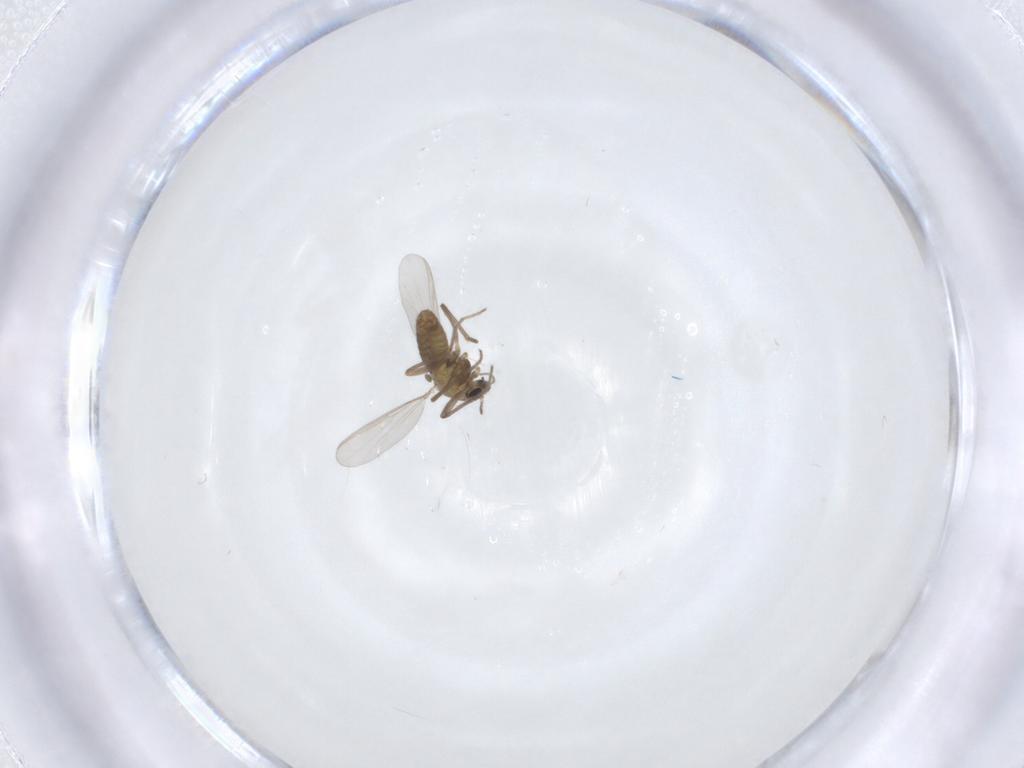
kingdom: Animalia
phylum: Arthropoda
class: Insecta
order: Diptera
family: Chironomidae
